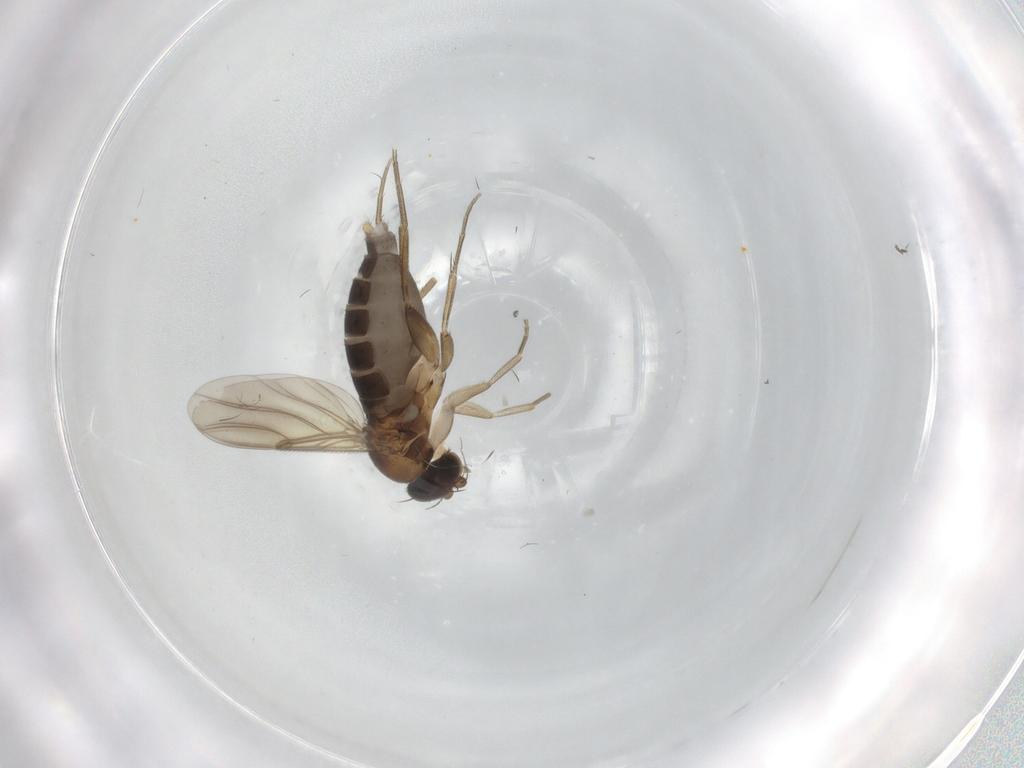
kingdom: Animalia
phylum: Arthropoda
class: Insecta
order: Diptera
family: Phoridae
